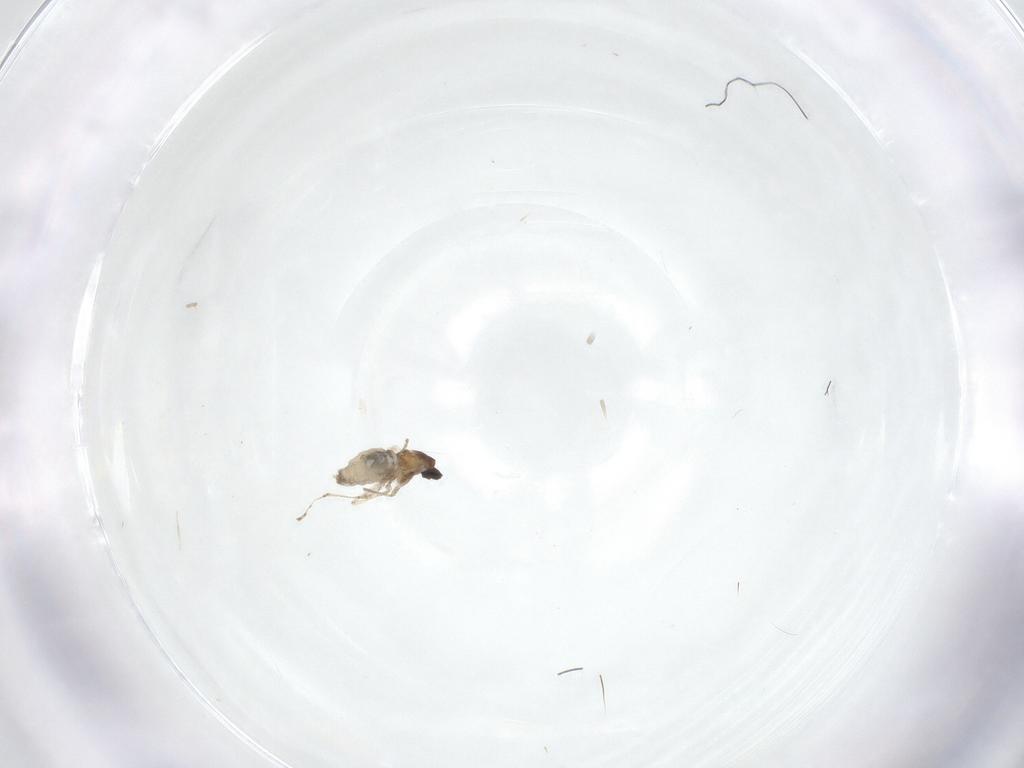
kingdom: Animalia
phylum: Arthropoda
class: Insecta
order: Diptera
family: Cecidomyiidae
